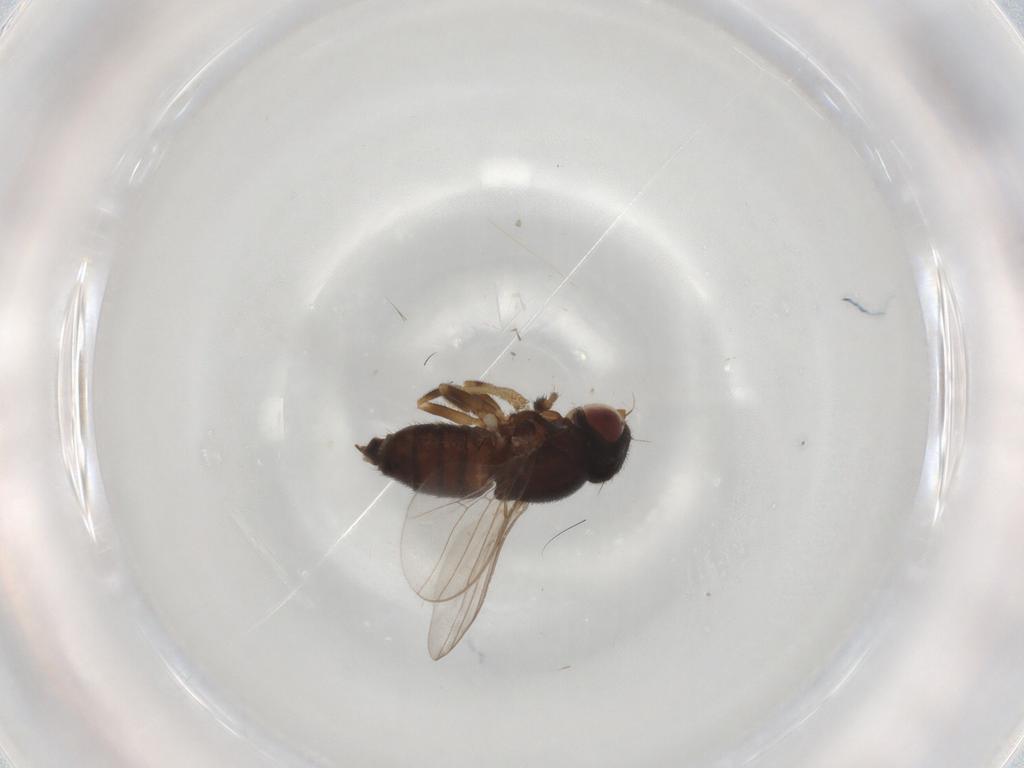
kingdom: Animalia
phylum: Arthropoda
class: Insecta
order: Diptera
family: Chloropidae
